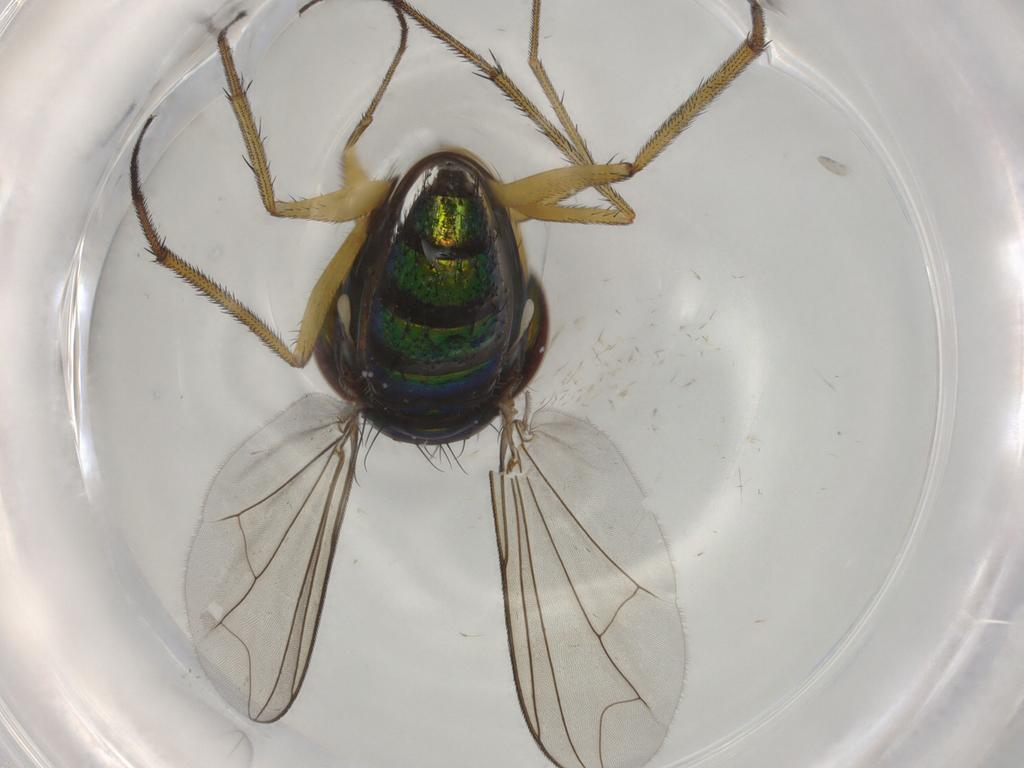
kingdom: Animalia
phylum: Arthropoda
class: Insecta
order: Diptera
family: Dolichopodidae
